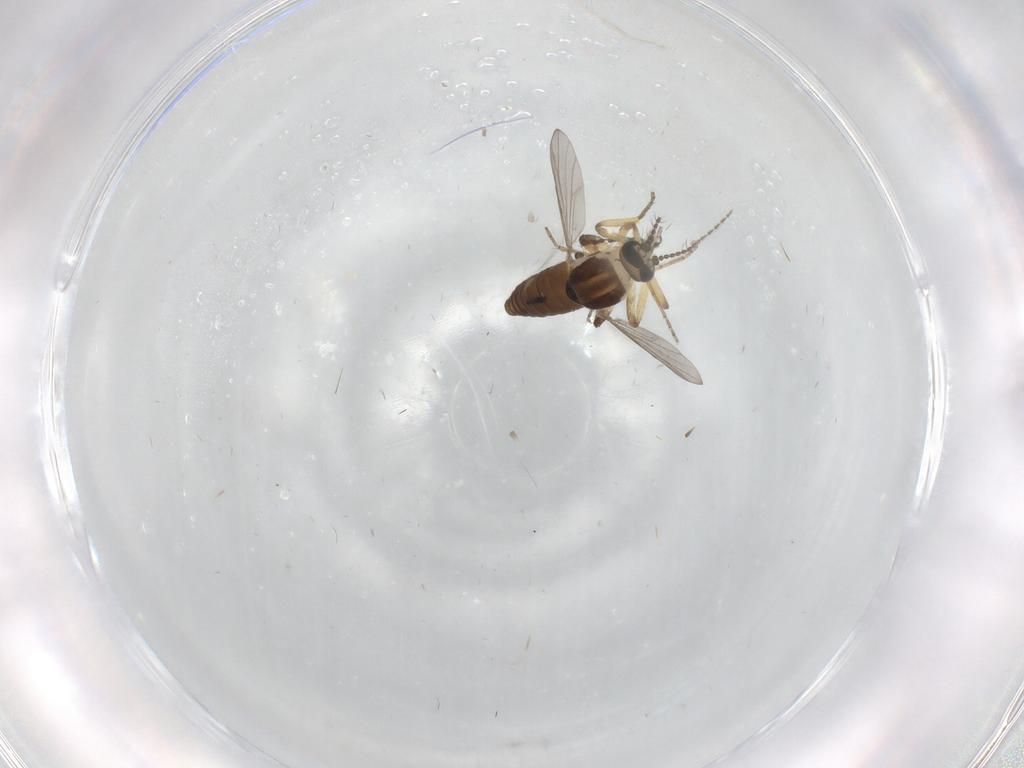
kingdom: Animalia
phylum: Arthropoda
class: Insecta
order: Diptera
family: Ceratopogonidae
